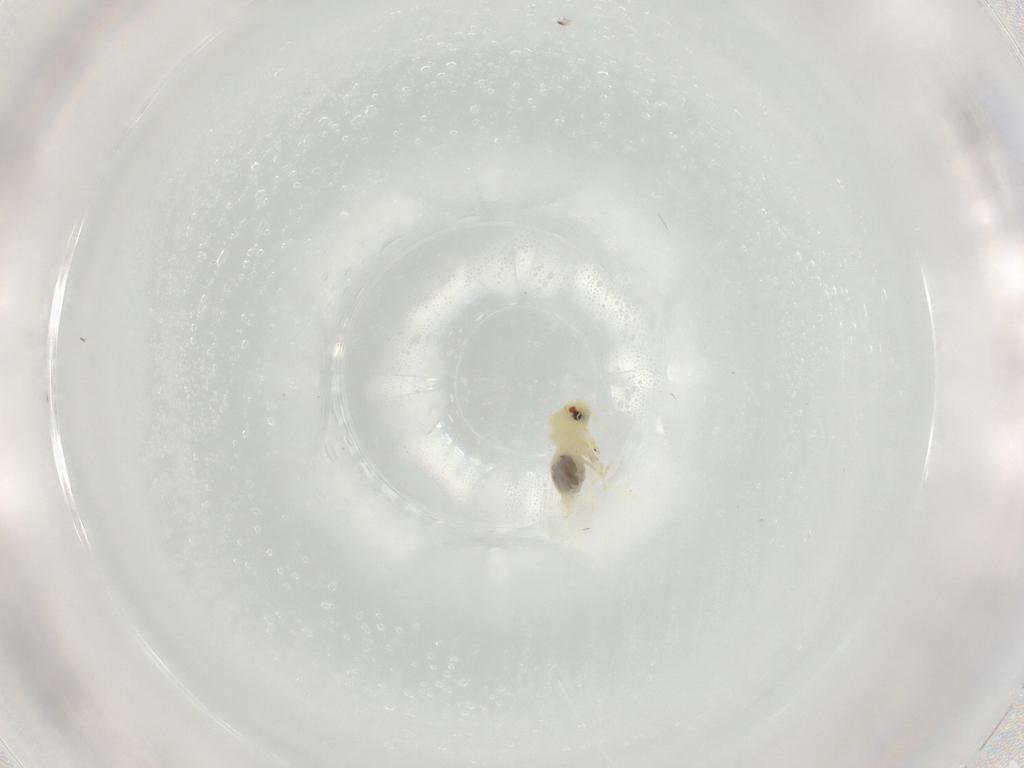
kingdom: Animalia
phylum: Arthropoda
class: Insecta
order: Hemiptera
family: Aleyrodidae
